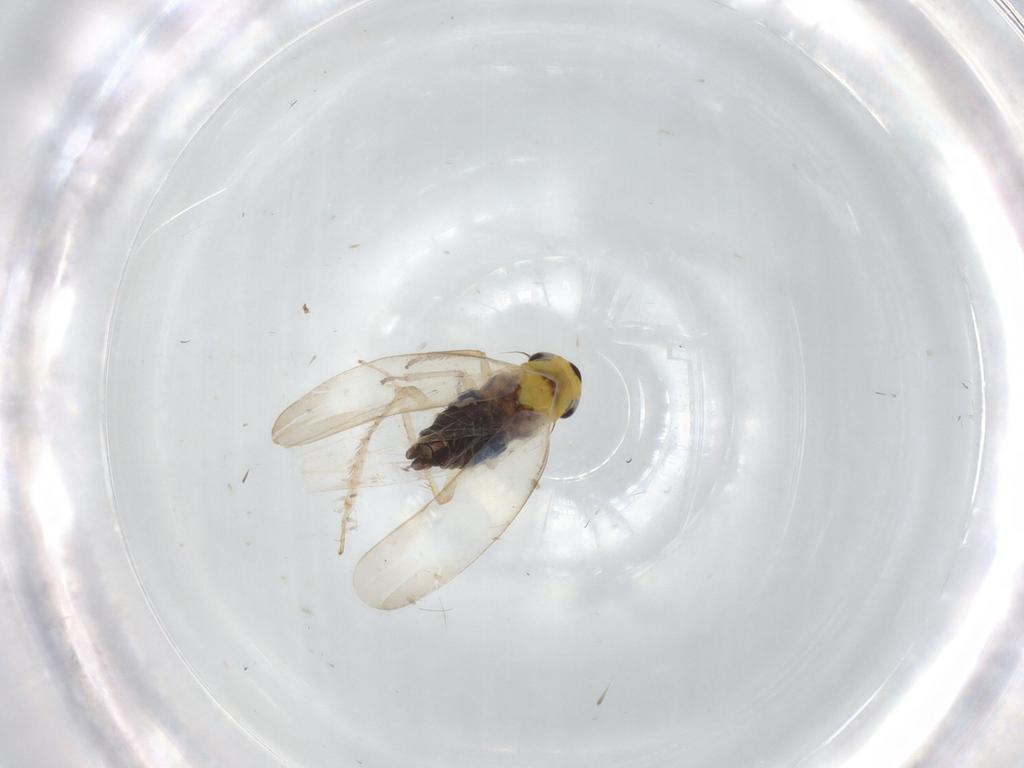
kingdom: Animalia
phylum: Arthropoda
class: Insecta
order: Hemiptera
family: Cicadellidae
